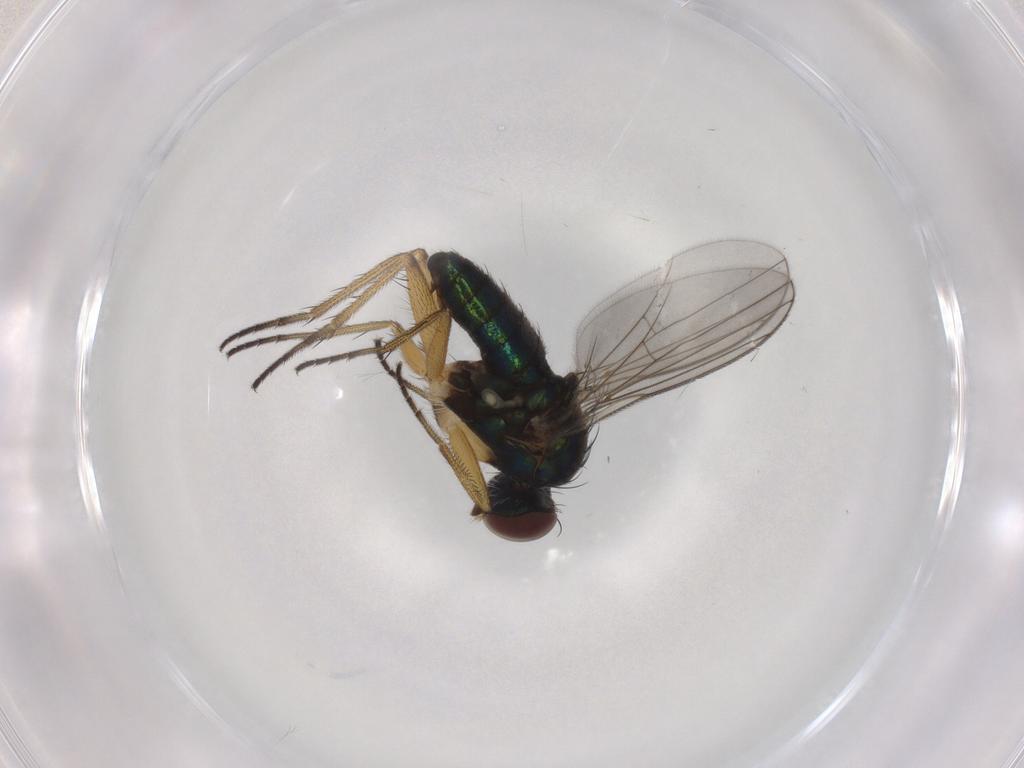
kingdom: Animalia
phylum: Arthropoda
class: Insecta
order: Diptera
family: Dolichopodidae
